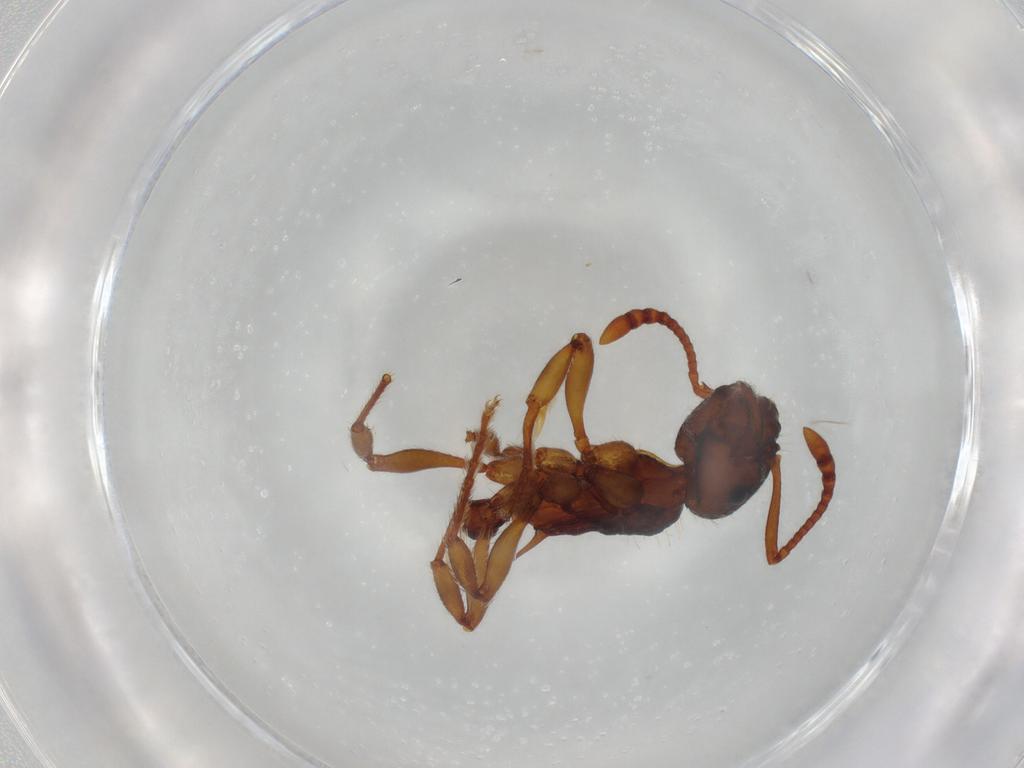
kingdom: Animalia
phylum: Arthropoda
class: Insecta
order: Hymenoptera
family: Formicidae
